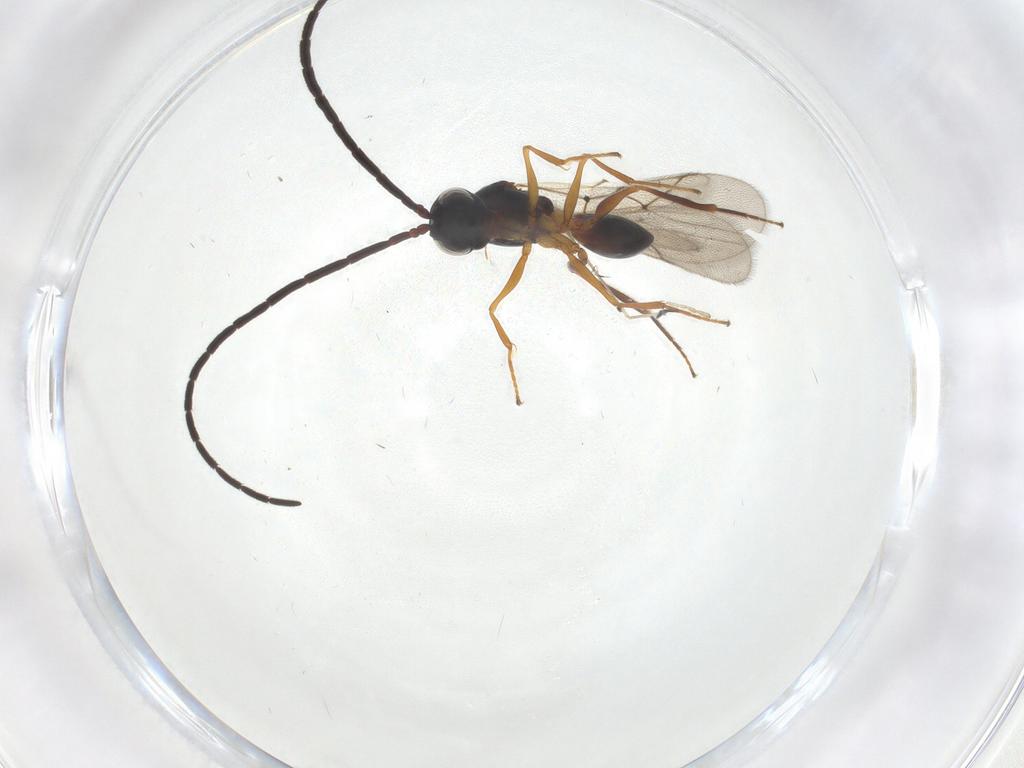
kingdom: Animalia
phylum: Arthropoda
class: Insecta
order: Hymenoptera
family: Figitidae
